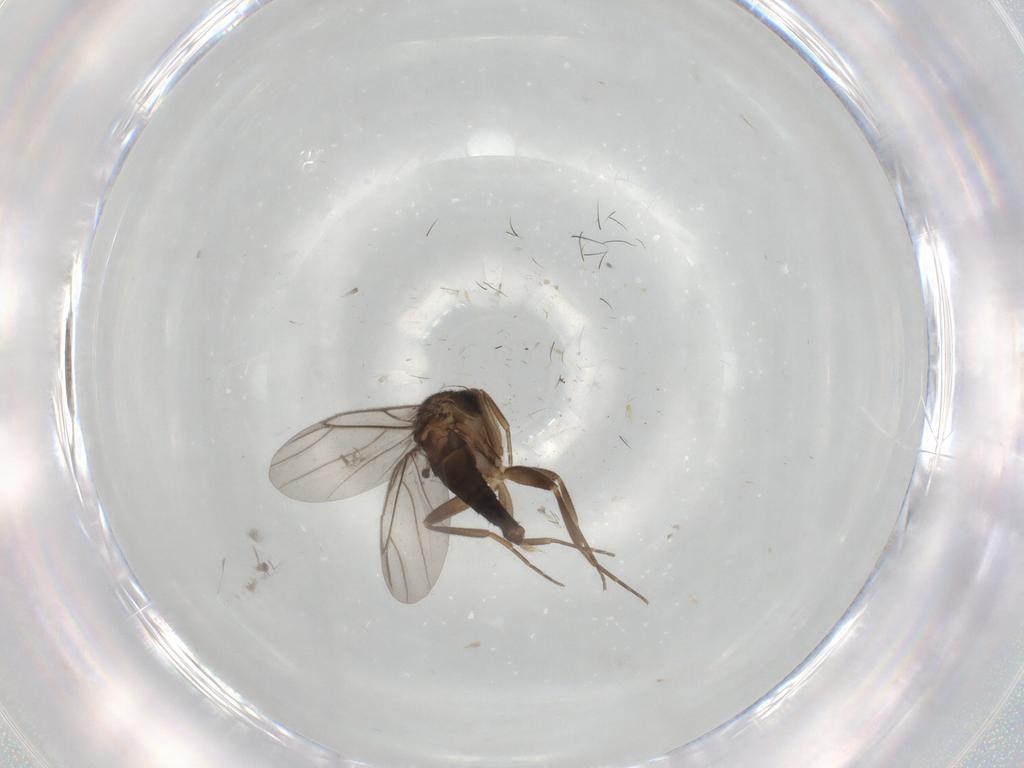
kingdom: Animalia
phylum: Arthropoda
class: Insecta
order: Diptera
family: Phoridae
